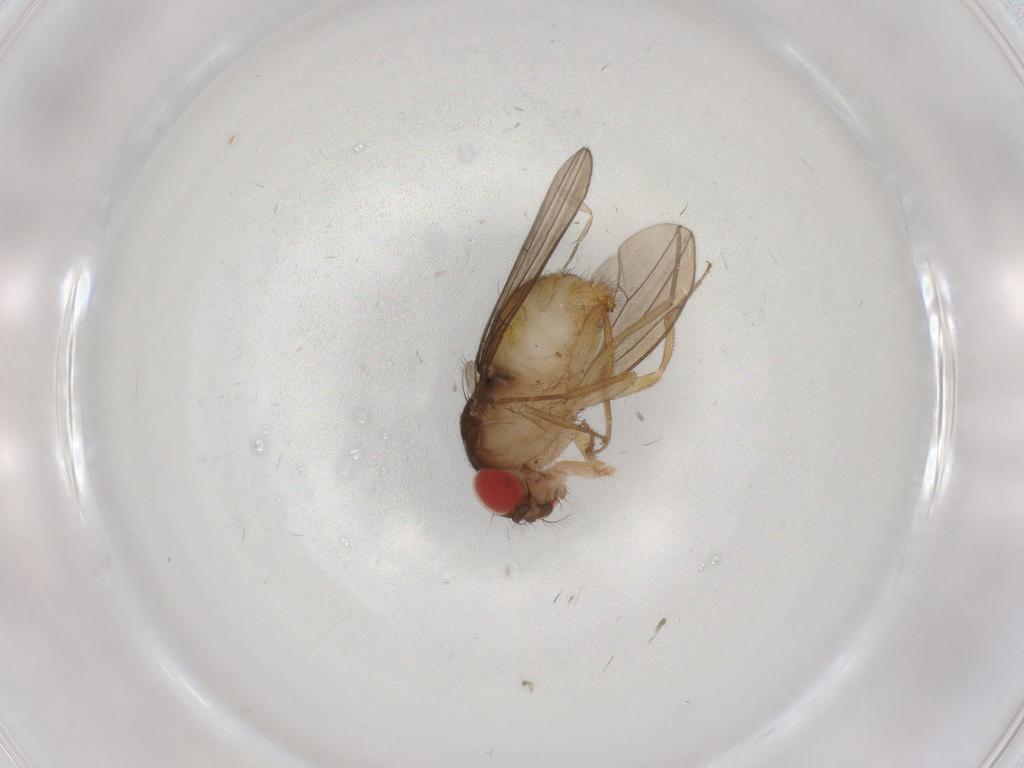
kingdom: Animalia
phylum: Arthropoda
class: Insecta
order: Diptera
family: Drosophilidae
